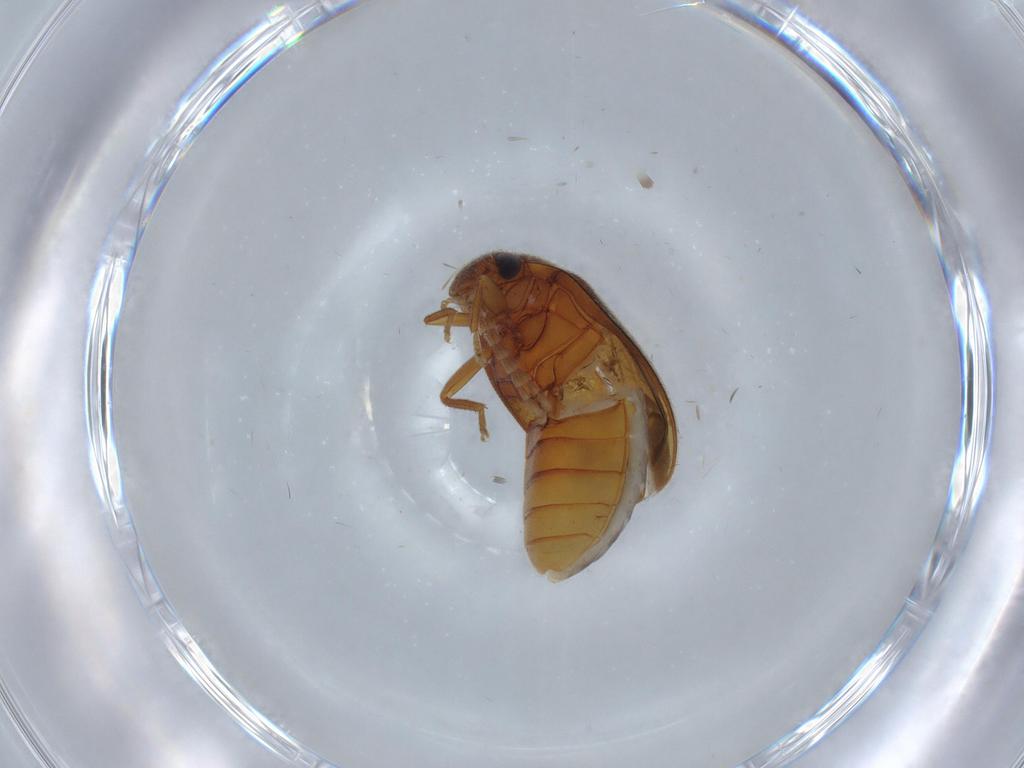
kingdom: Animalia
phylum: Arthropoda
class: Insecta
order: Coleoptera
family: Scirtidae
